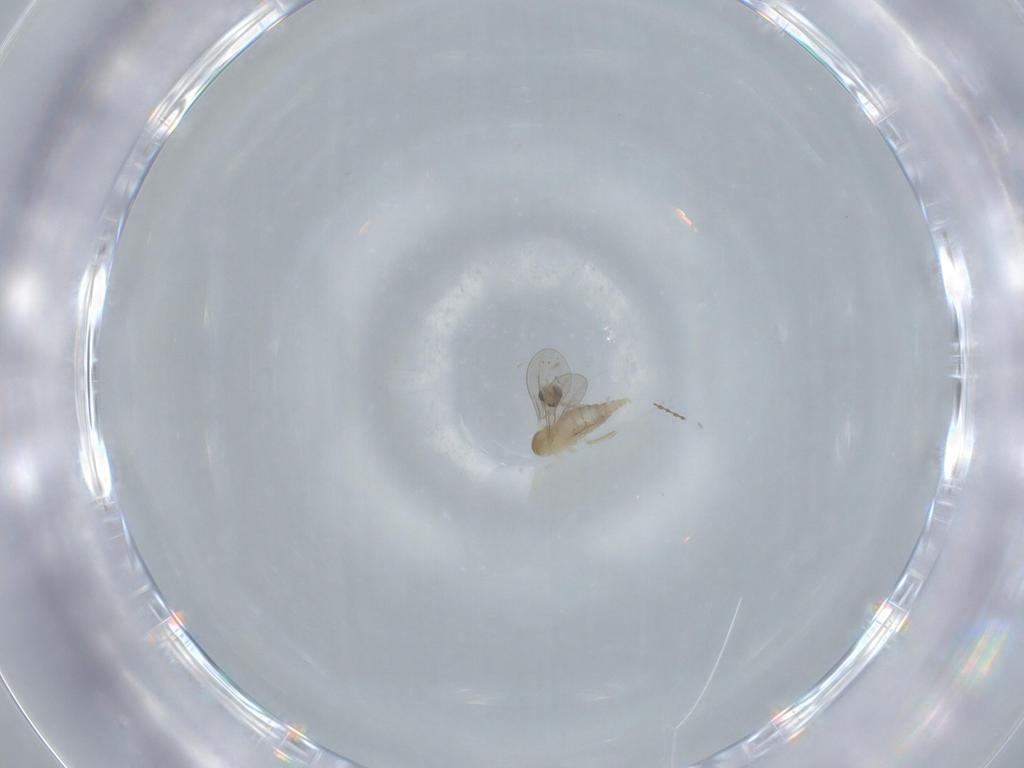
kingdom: Animalia
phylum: Arthropoda
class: Insecta
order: Diptera
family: Cecidomyiidae
